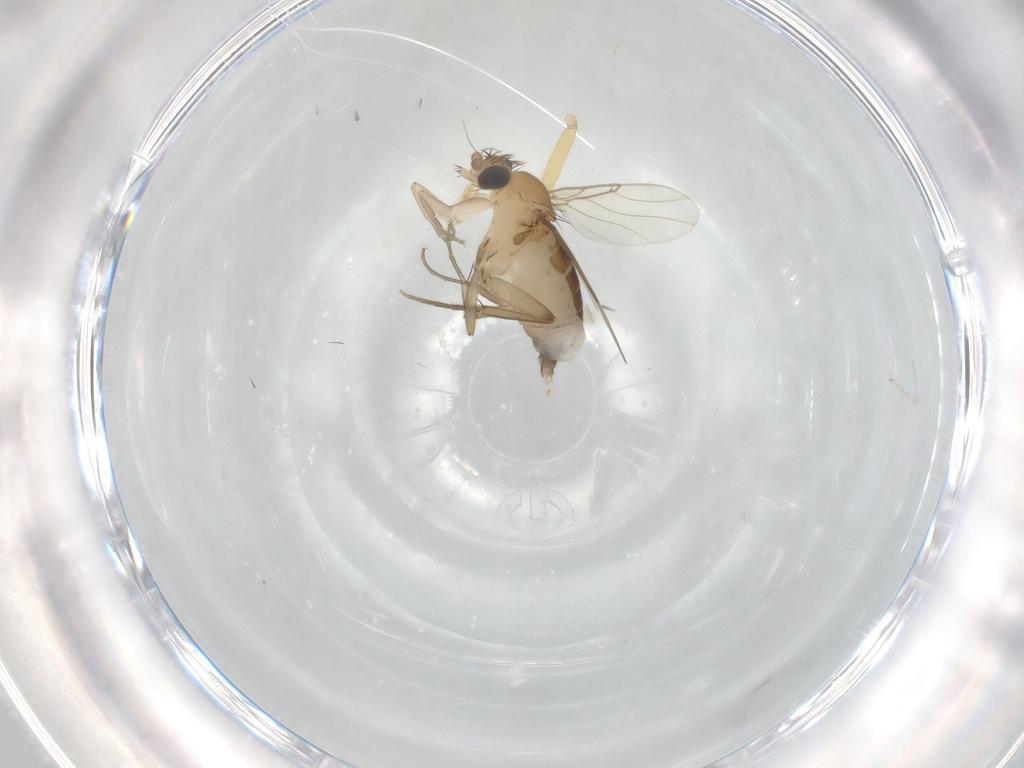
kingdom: Animalia
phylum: Arthropoda
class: Insecta
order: Diptera
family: Phoridae
